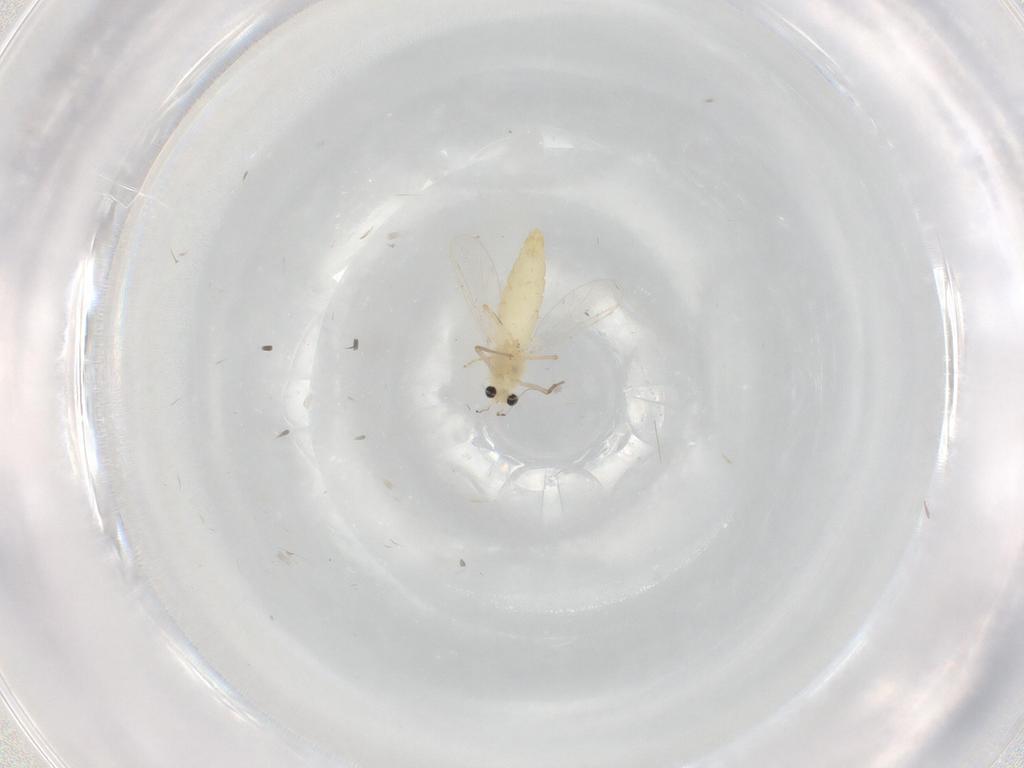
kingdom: Animalia
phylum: Arthropoda
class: Insecta
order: Diptera
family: Chironomidae
